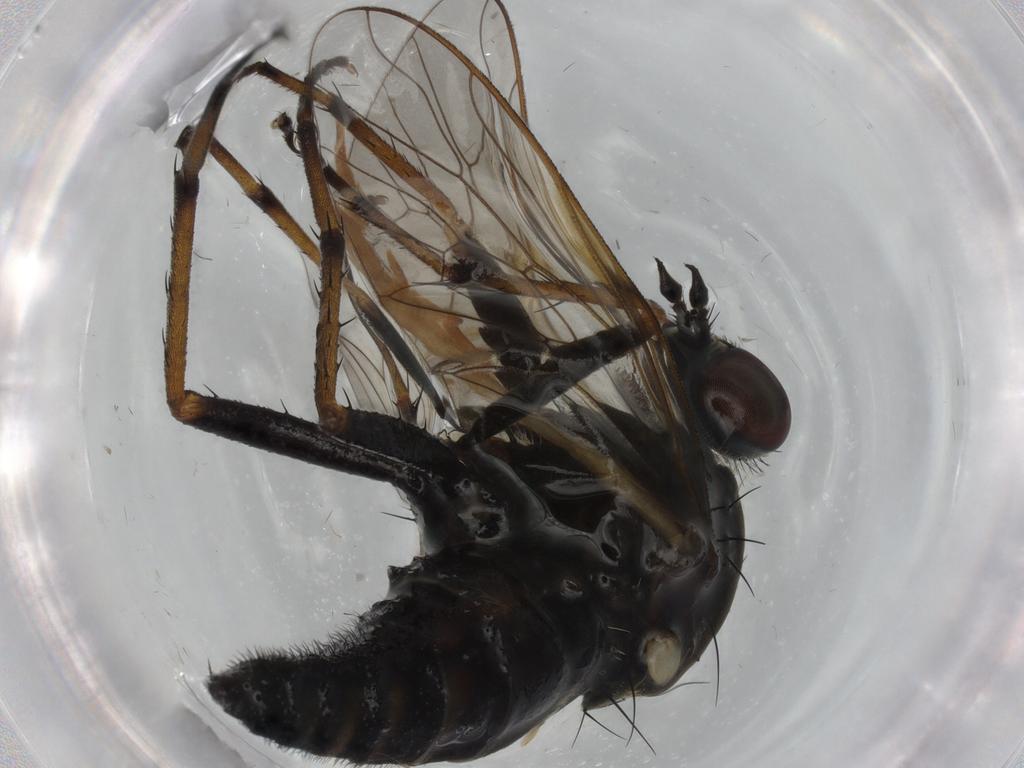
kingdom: Animalia
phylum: Arthropoda
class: Insecta
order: Diptera
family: Therevidae
